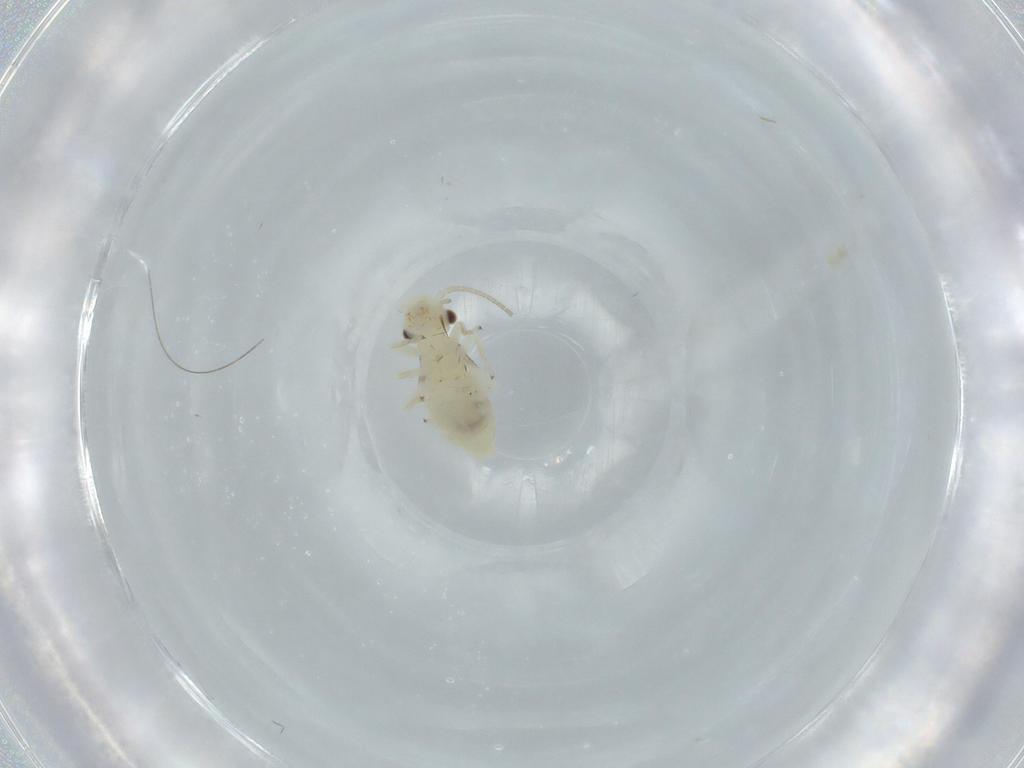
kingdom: Animalia
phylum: Arthropoda
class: Insecta
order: Psocodea
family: Caeciliusidae
